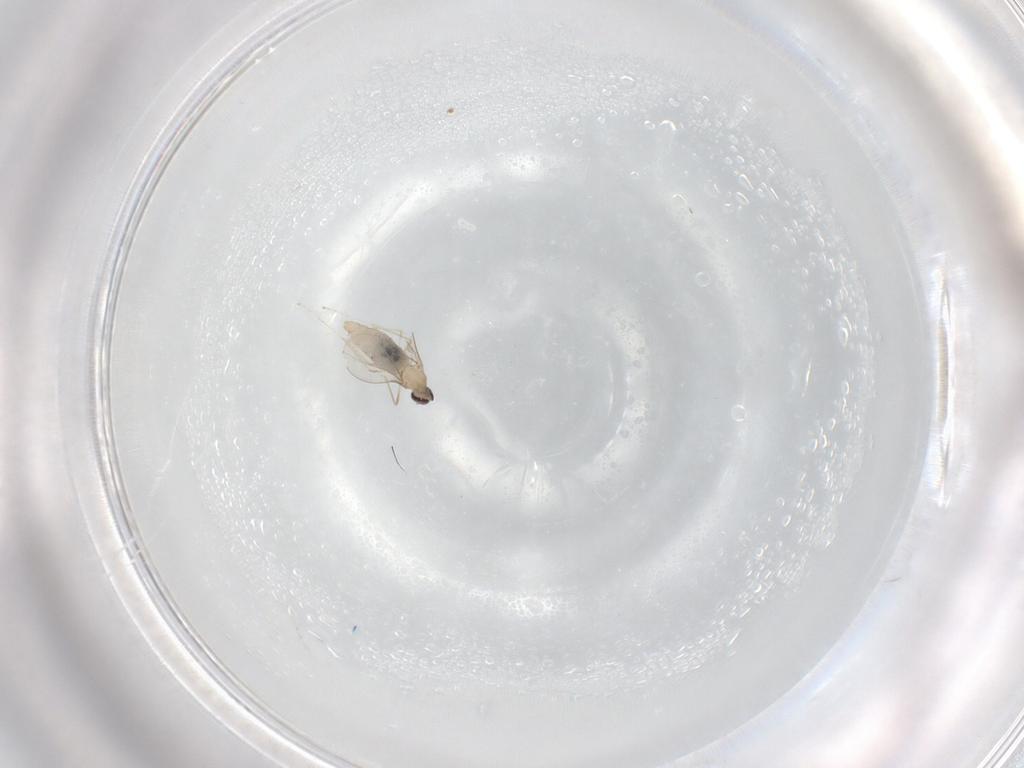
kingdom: Animalia
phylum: Arthropoda
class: Insecta
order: Diptera
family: Cecidomyiidae
